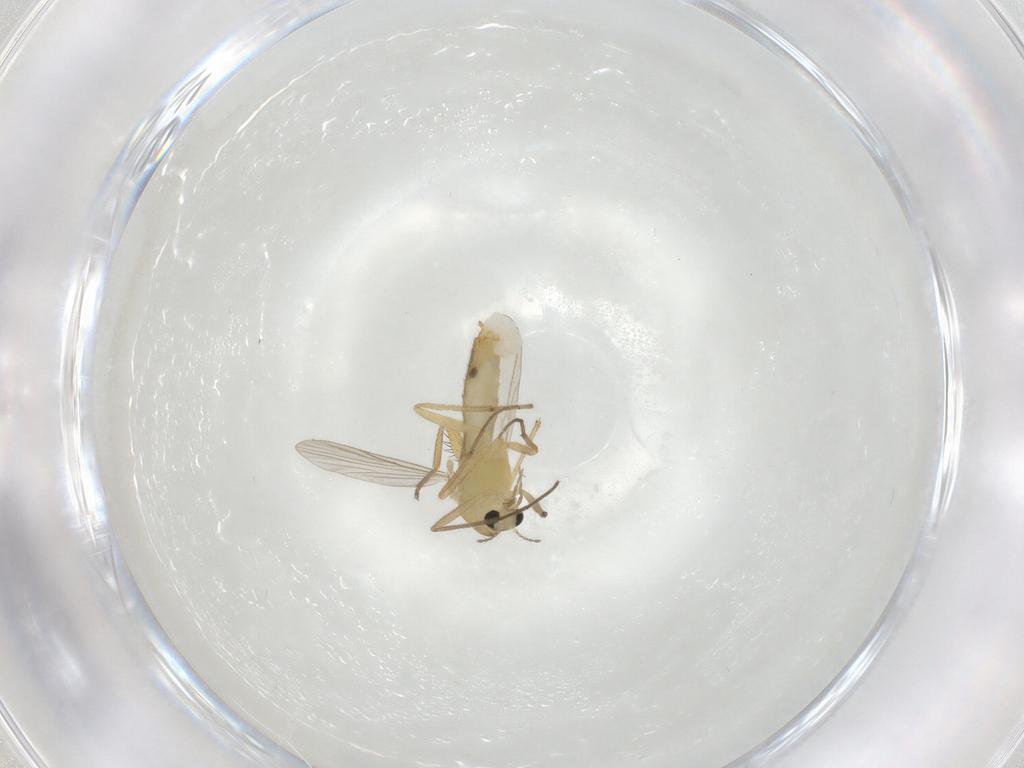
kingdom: Animalia
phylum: Arthropoda
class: Insecta
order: Diptera
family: Chironomidae
